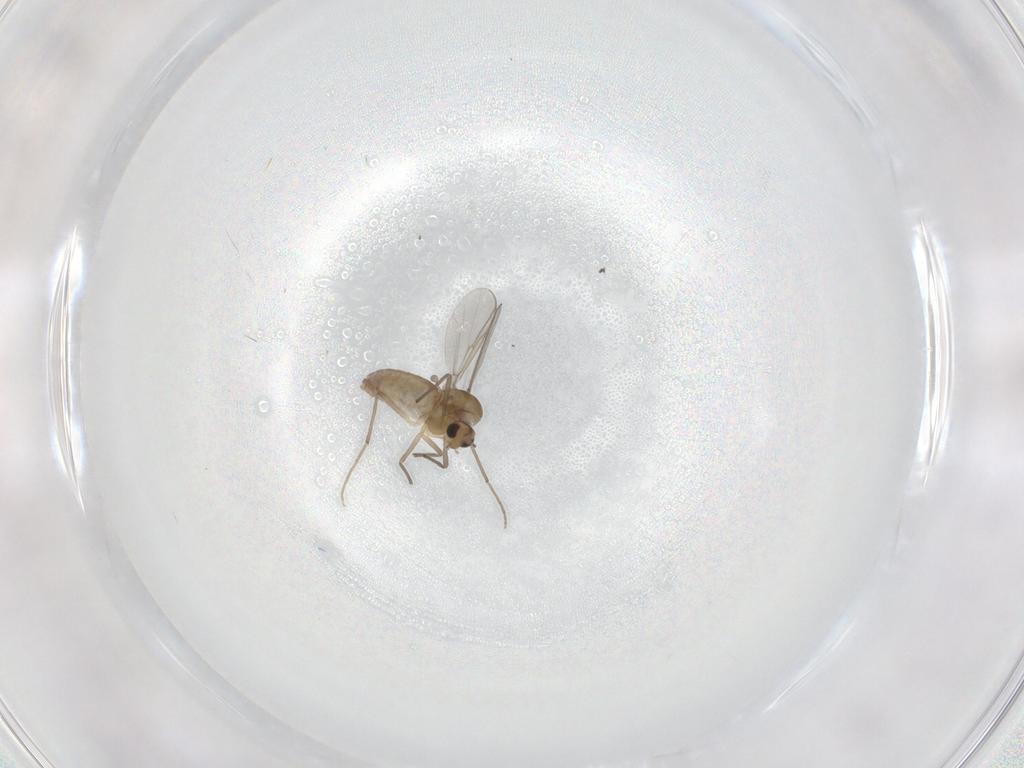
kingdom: Animalia
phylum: Arthropoda
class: Insecta
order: Diptera
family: Chironomidae
